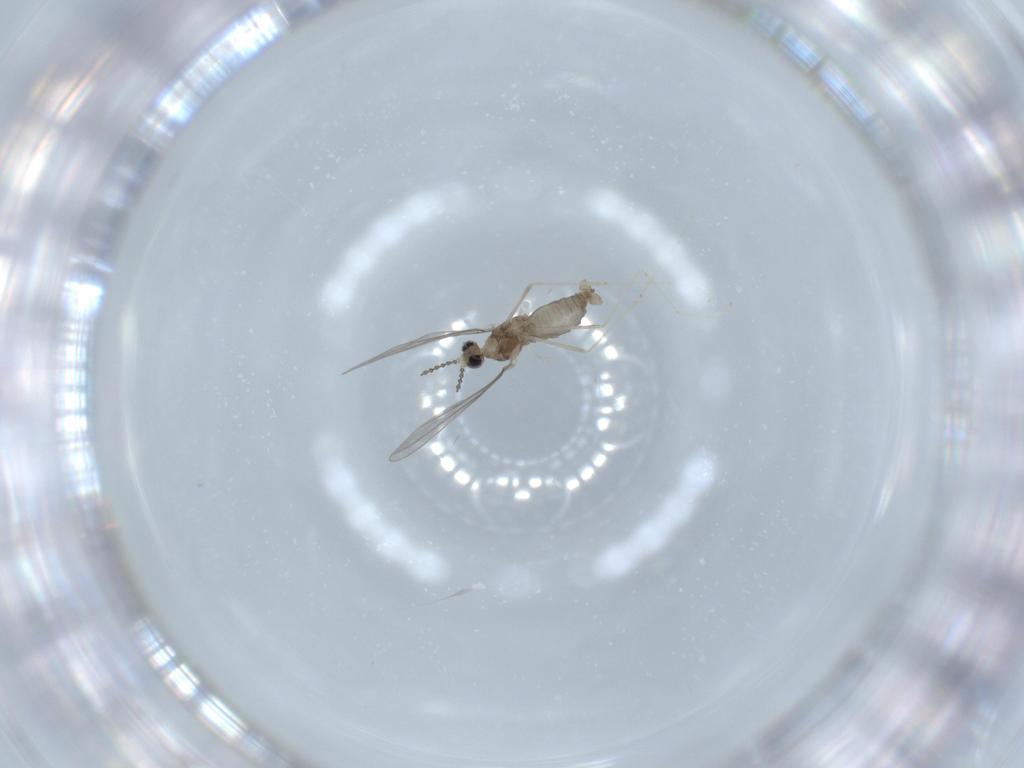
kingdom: Animalia
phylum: Arthropoda
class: Insecta
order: Diptera
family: Cecidomyiidae
